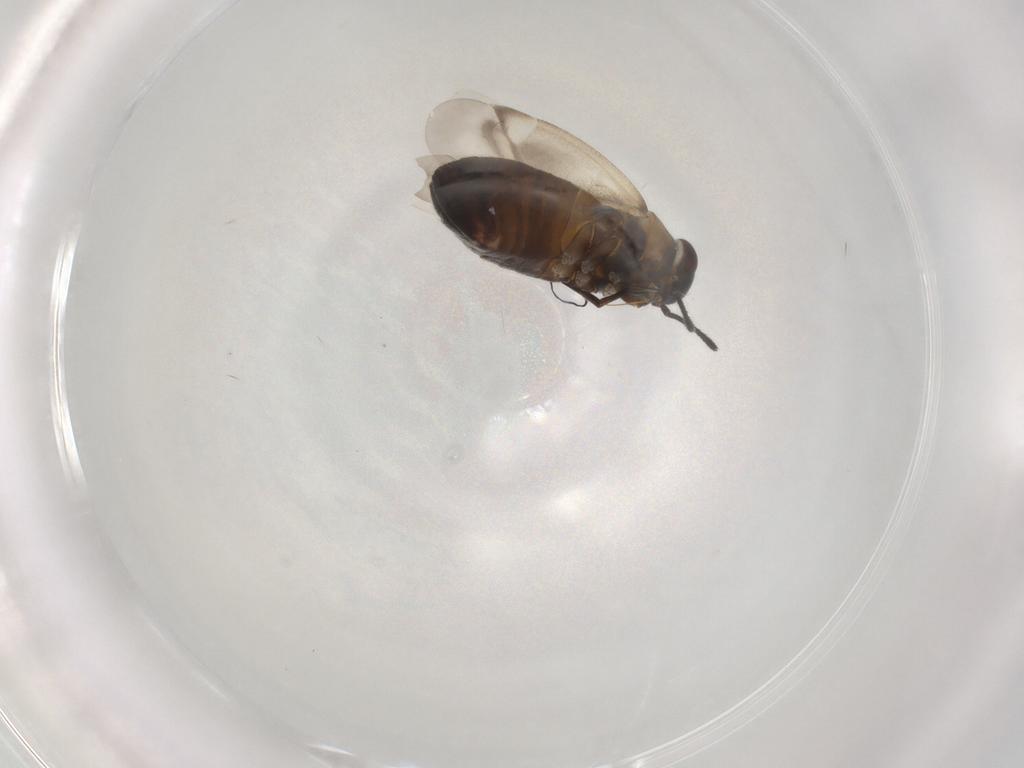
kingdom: Animalia
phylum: Arthropoda
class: Insecta
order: Hemiptera
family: Miridae
